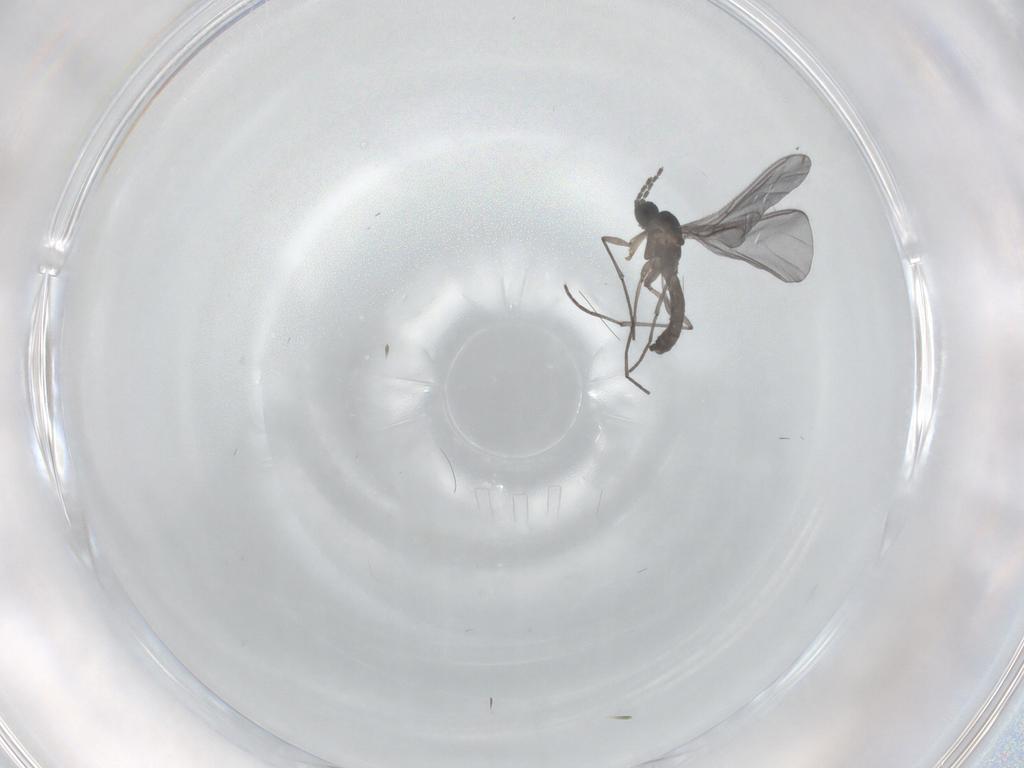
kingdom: Animalia
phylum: Arthropoda
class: Insecta
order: Diptera
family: Sciaridae
